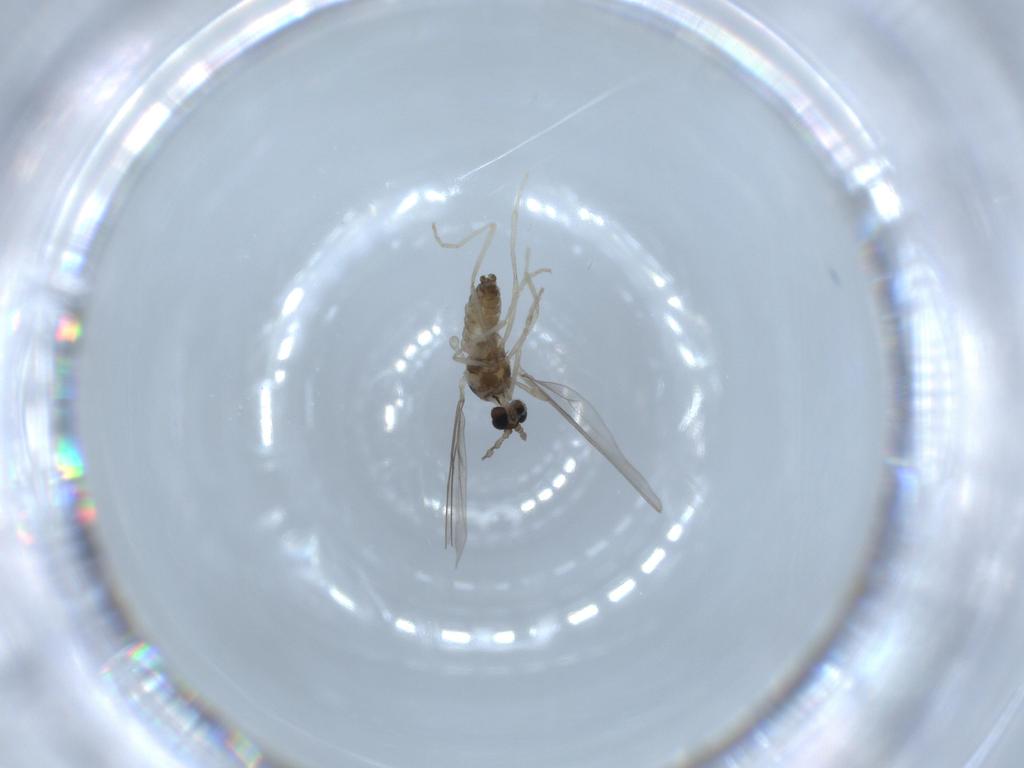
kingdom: Animalia
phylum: Arthropoda
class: Insecta
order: Diptera
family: Cecidomyiidae
